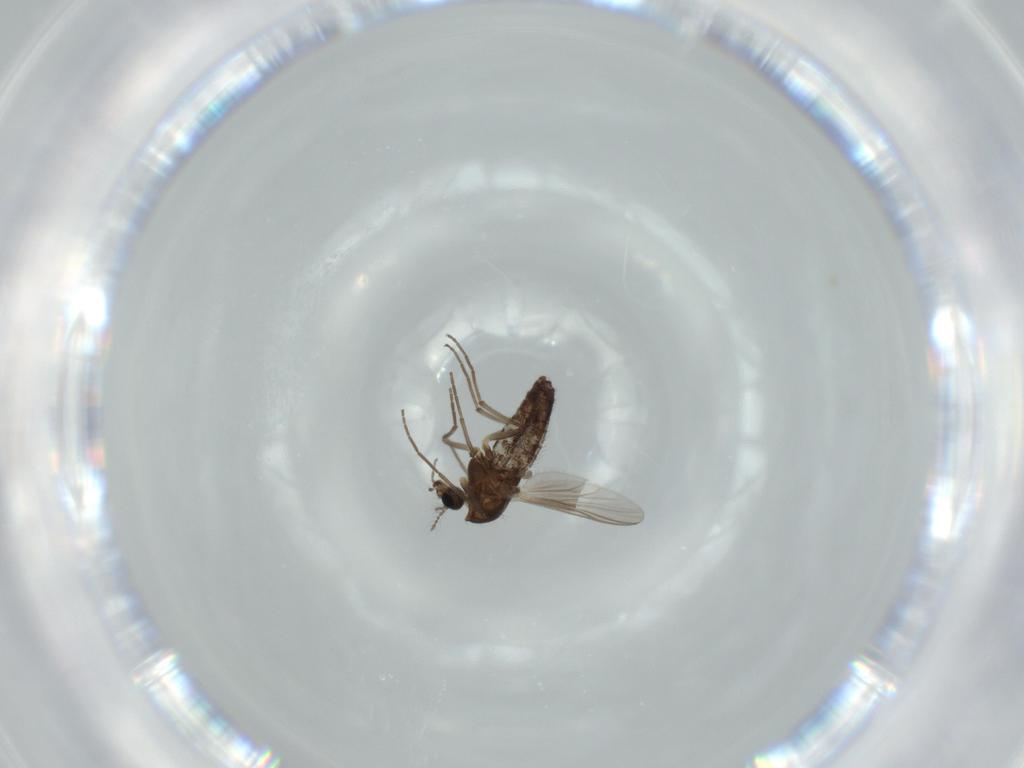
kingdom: Animalia
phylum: Arthropoda
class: Insecta
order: Diptera
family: Chironomidae
